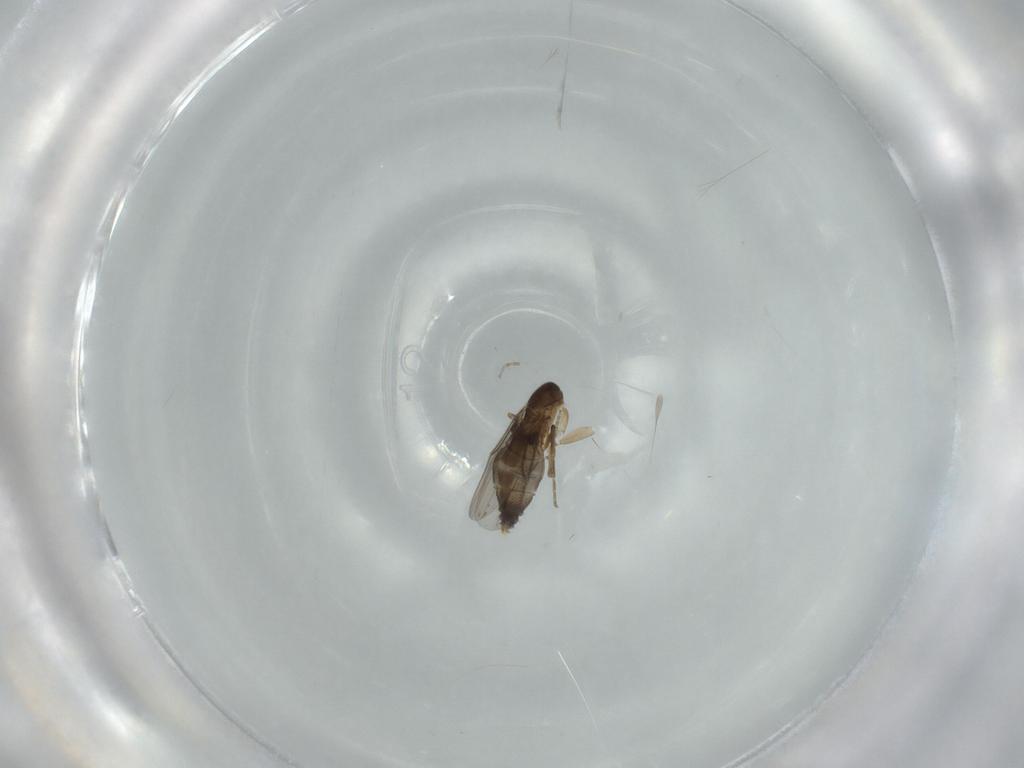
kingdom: Animalia
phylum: Arthropoda
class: Insecta
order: Diptera
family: Phoridae
